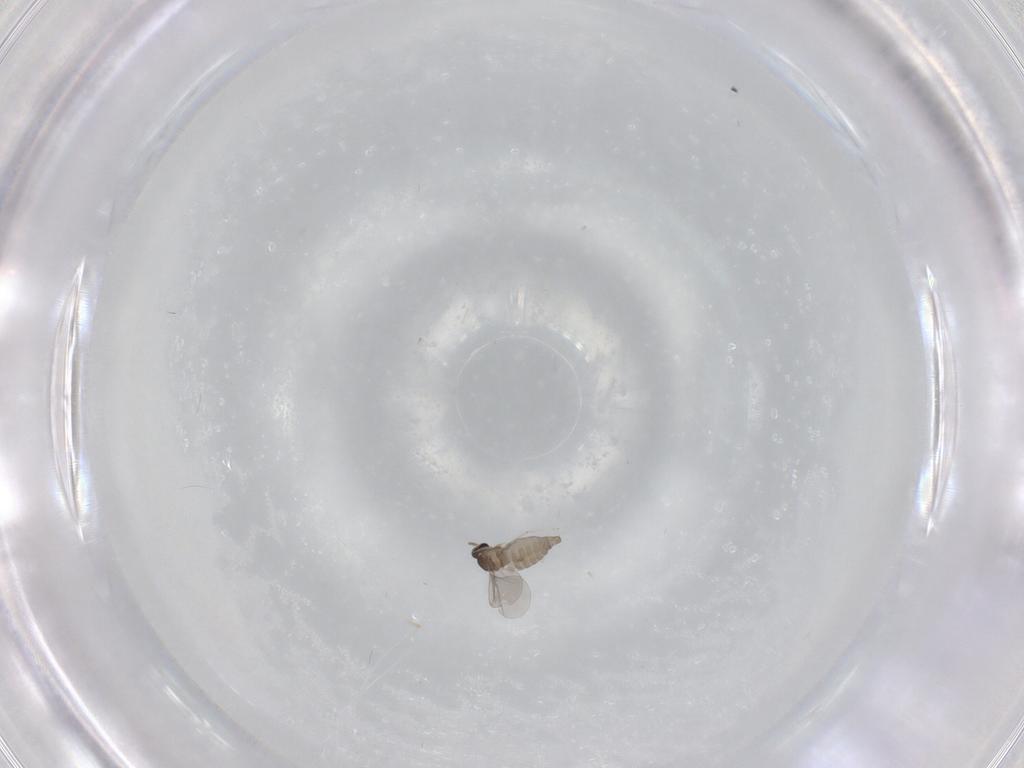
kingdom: Animalia
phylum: Arthropoda
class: Insecta
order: Diptera
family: Cecidomyiidae
